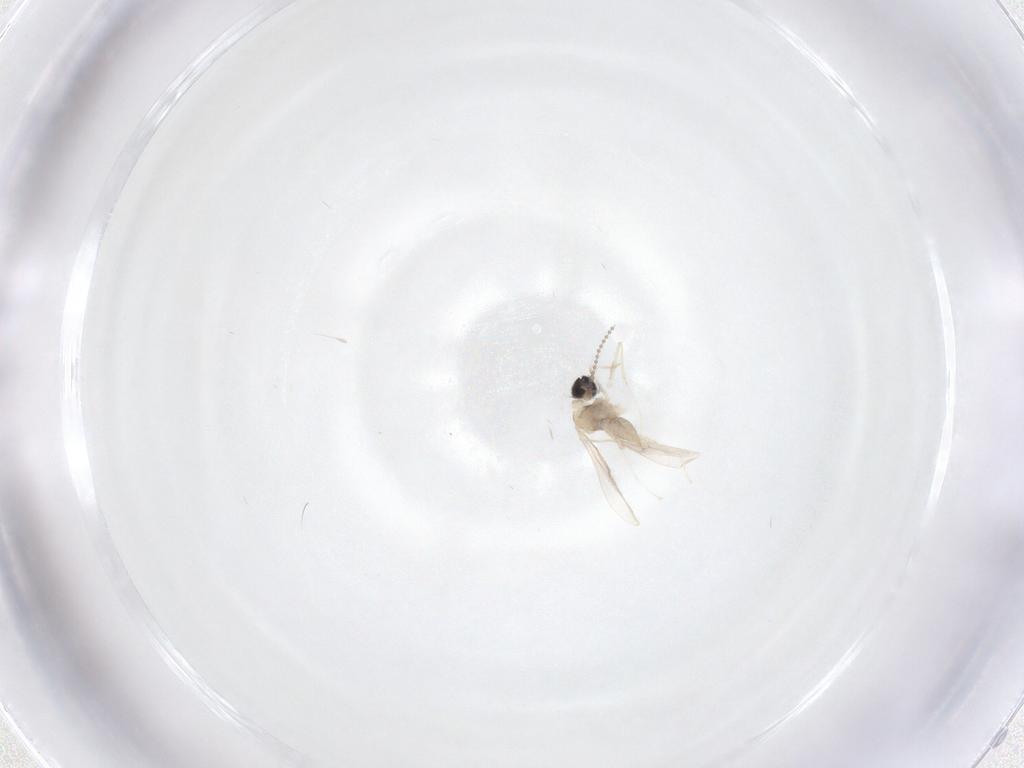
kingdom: Animalia
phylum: Arthropoda
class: Insecta
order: Diptera
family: Cecidomyiidae
